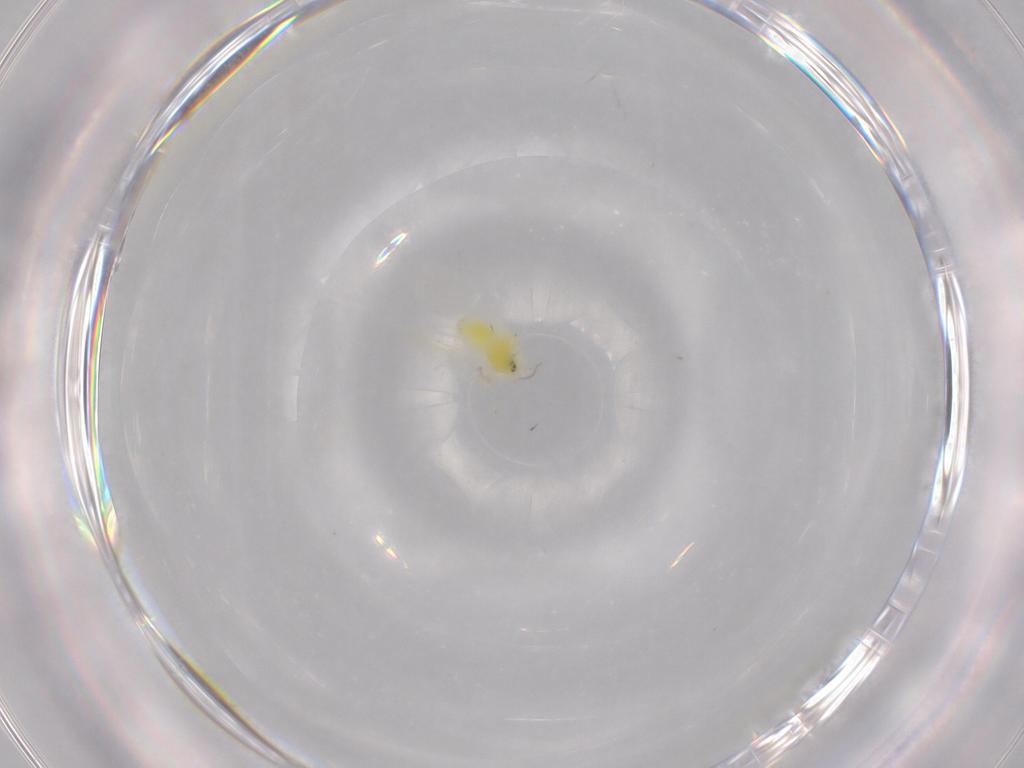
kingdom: Animalia
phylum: Arthropoda
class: Insecta
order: Hemiptera
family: Aleyrodidae
